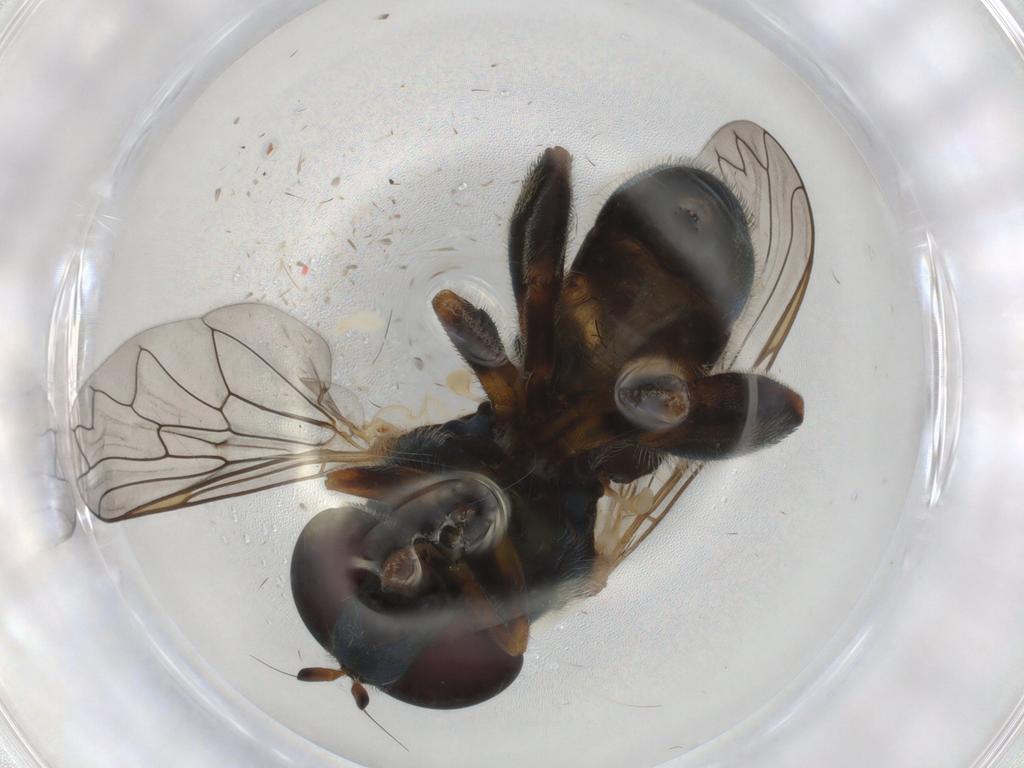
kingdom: Animalia
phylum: Arthropoda
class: Insecta
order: Diptera
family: Syrphidae
